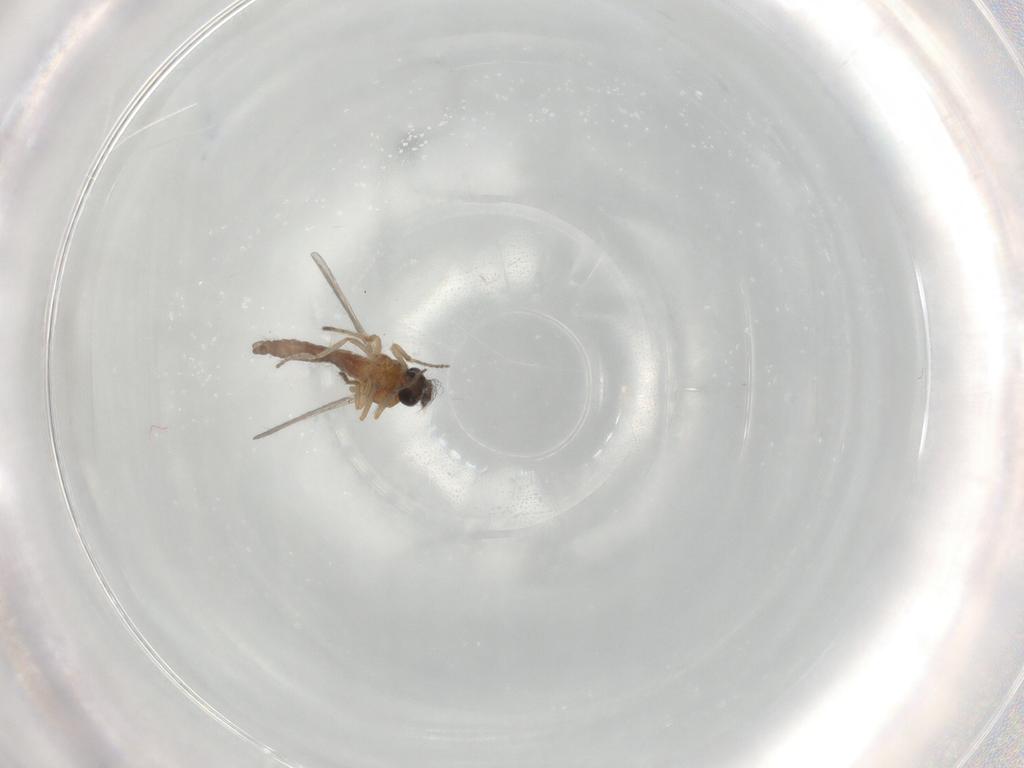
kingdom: Animalia
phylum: Arthropoda
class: Insecta
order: Diptera
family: Ceratopogonidae
